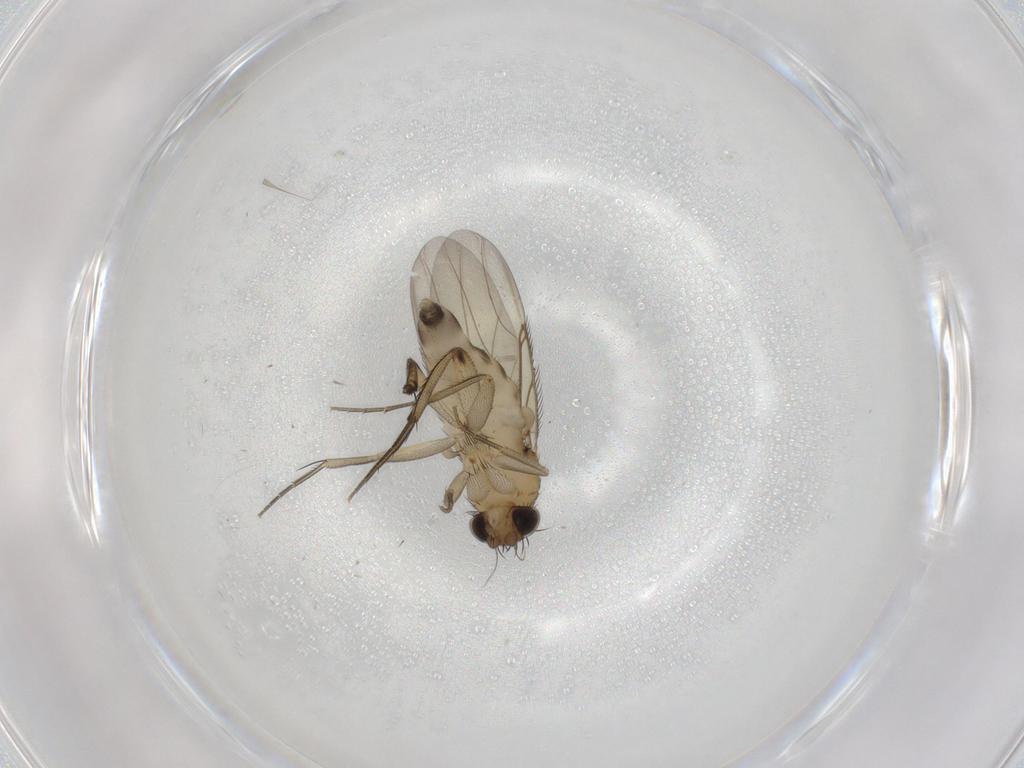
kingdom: Animalia
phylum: Arthropoda
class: Insecta
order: Diptera
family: Phoridae
